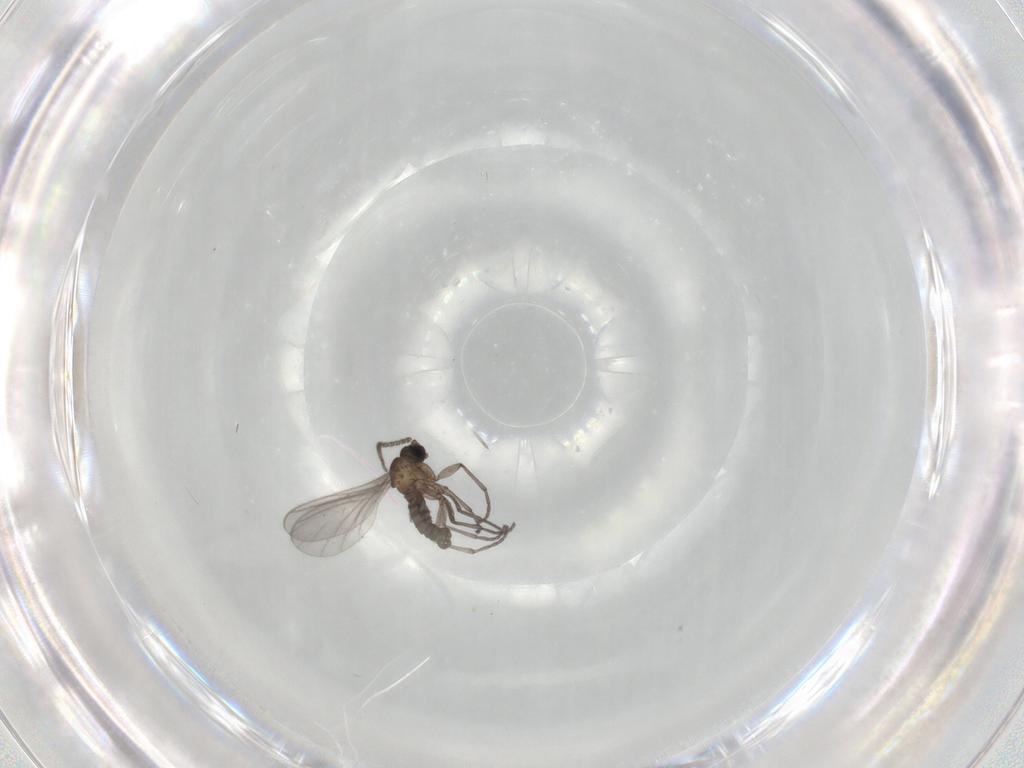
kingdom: Animalia
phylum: Arthropoda
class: Insecta
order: Diptera
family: Sciaridae
